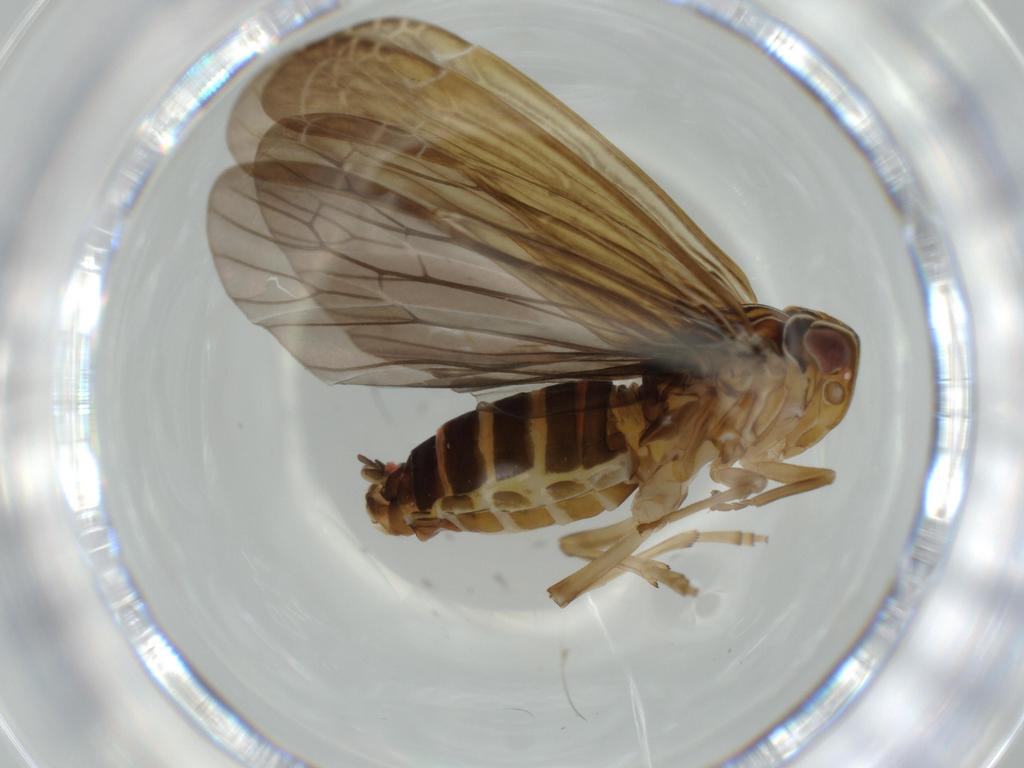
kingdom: Animalia
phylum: Arthropoda
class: Insecta
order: Hemiptera
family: Achilidae
